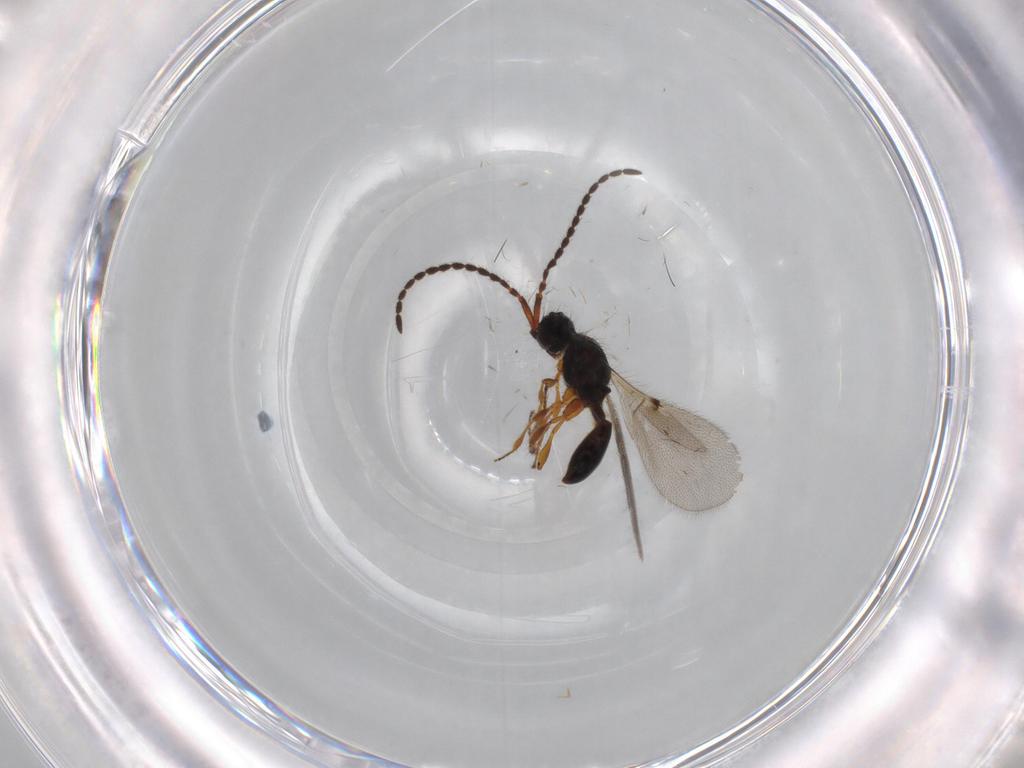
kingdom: Animalia
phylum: Arthropoda
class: Insecta
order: Hymenoptera
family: Diapriidae
